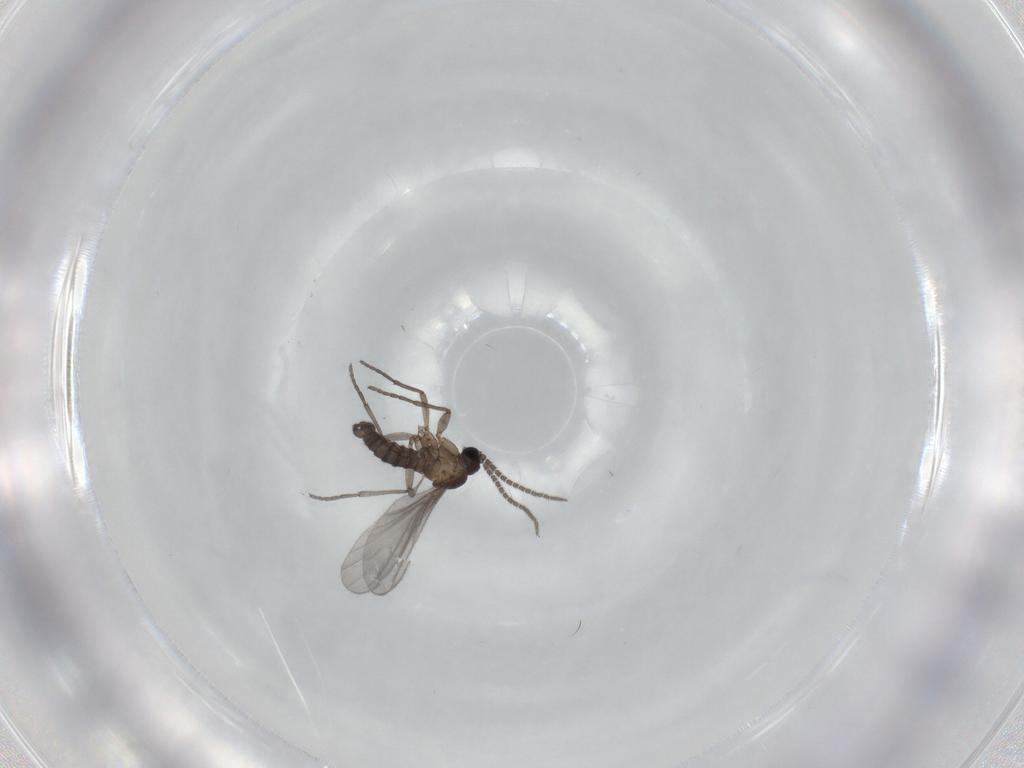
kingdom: Animalia
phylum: Arthropoda
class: Insecta
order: Diptera
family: Sciaridae
